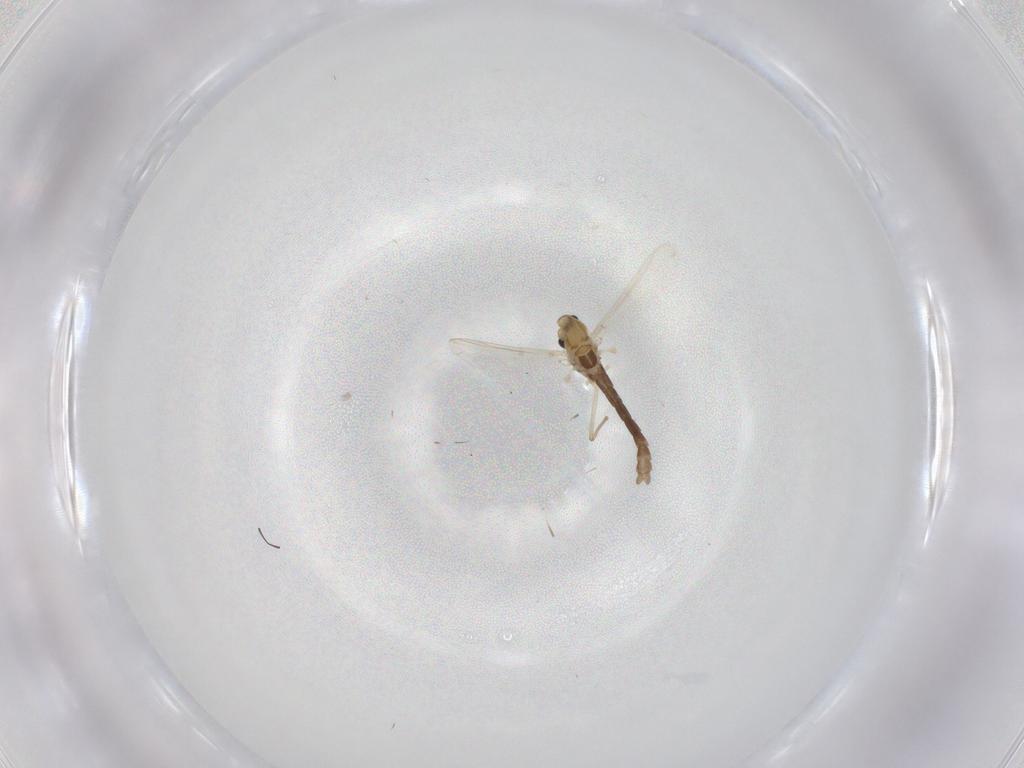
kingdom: Animalia
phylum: Arthropoda
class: Insecta
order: Diptera
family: Chironomidae
